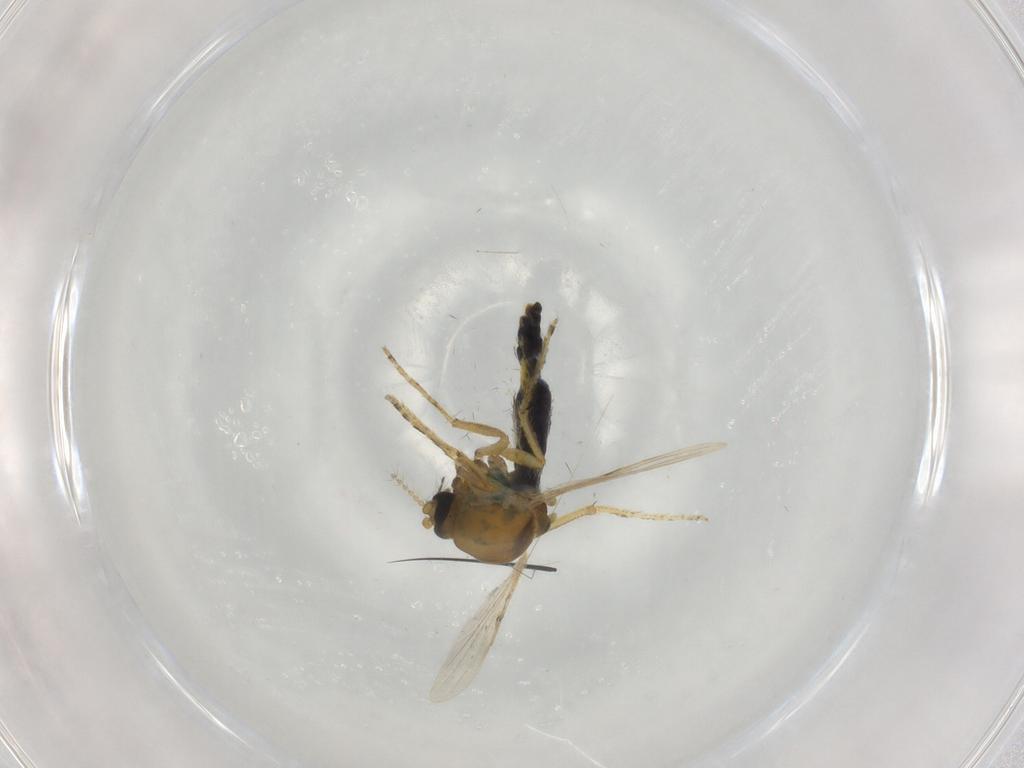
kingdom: Animalia
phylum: Arthropoda
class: Insecta
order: Diptera
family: Ceratopogonidae
